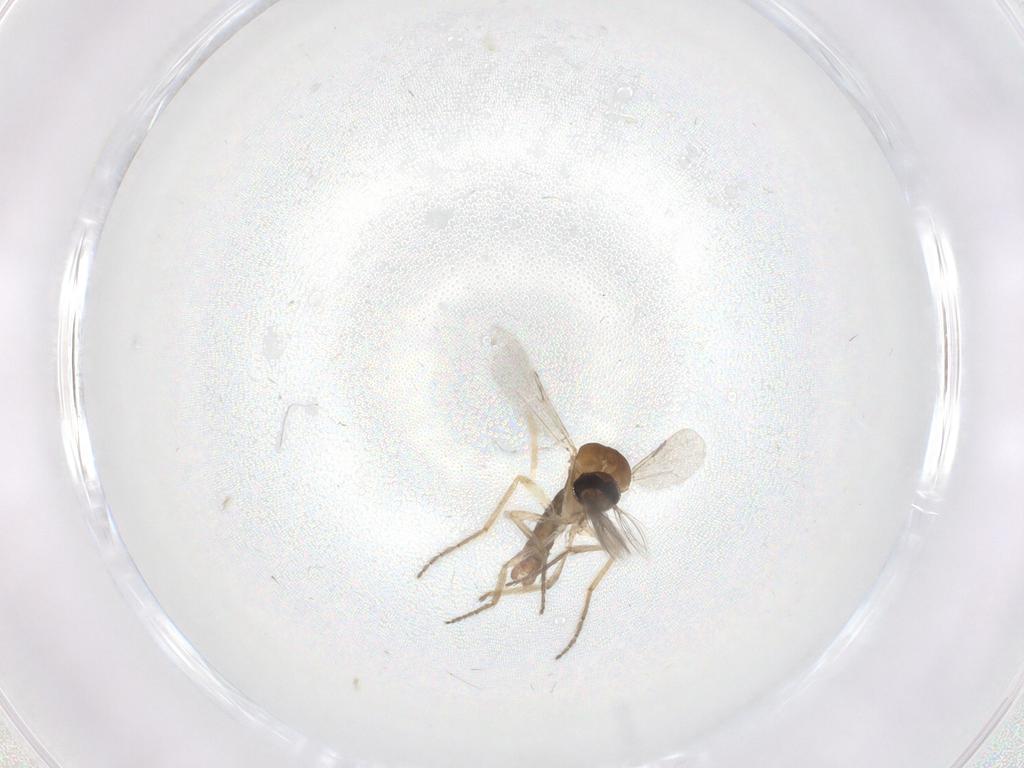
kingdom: Animalia
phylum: Arthropoda
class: Insecta
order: Diptera
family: Ceratopogonidae
